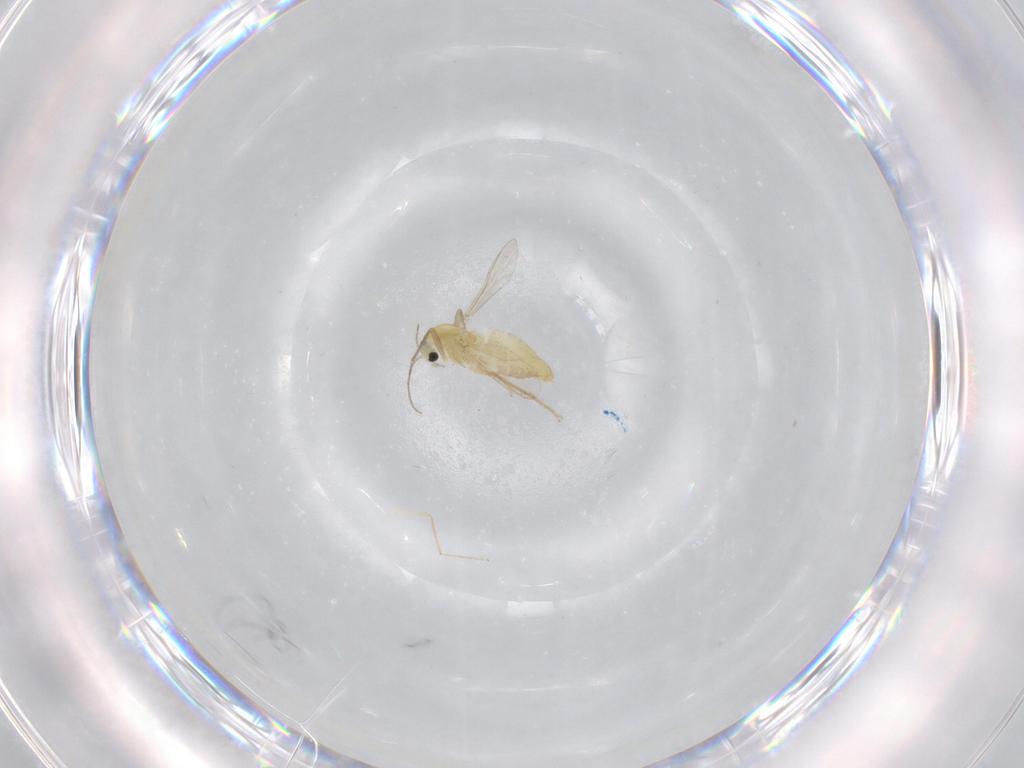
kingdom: Animalia
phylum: Arthropoda
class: Insecta
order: Diptera
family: Chironomidae
